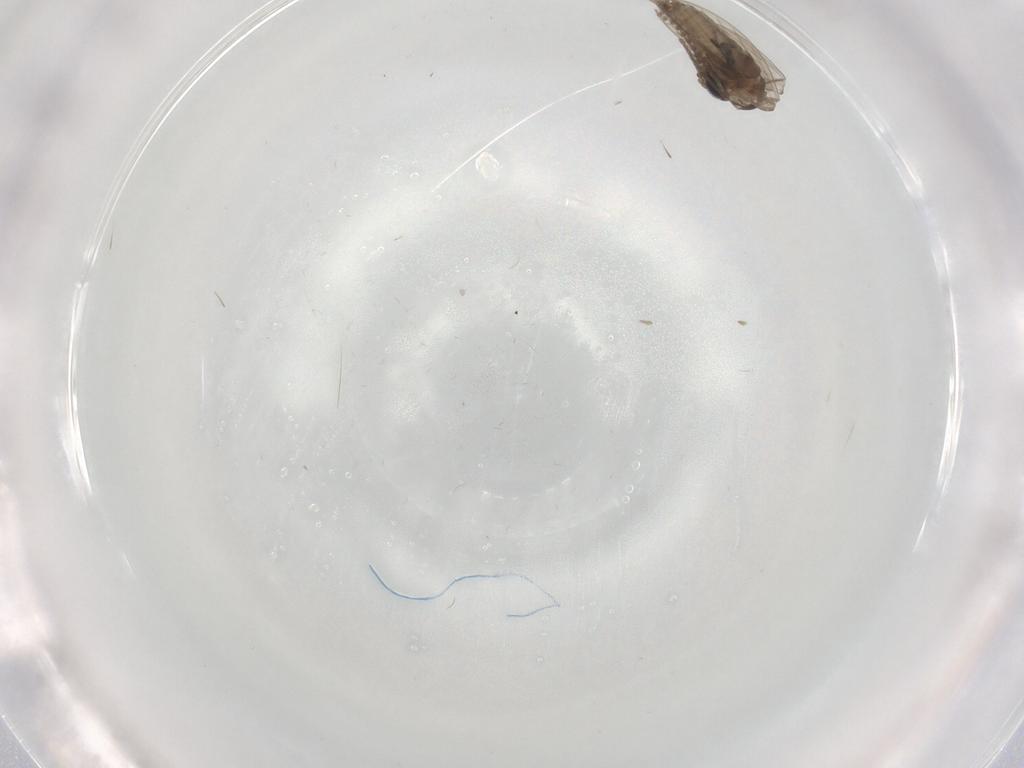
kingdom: Animalia
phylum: Arthropoda
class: Insecta
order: Diptera
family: Psychodidae
